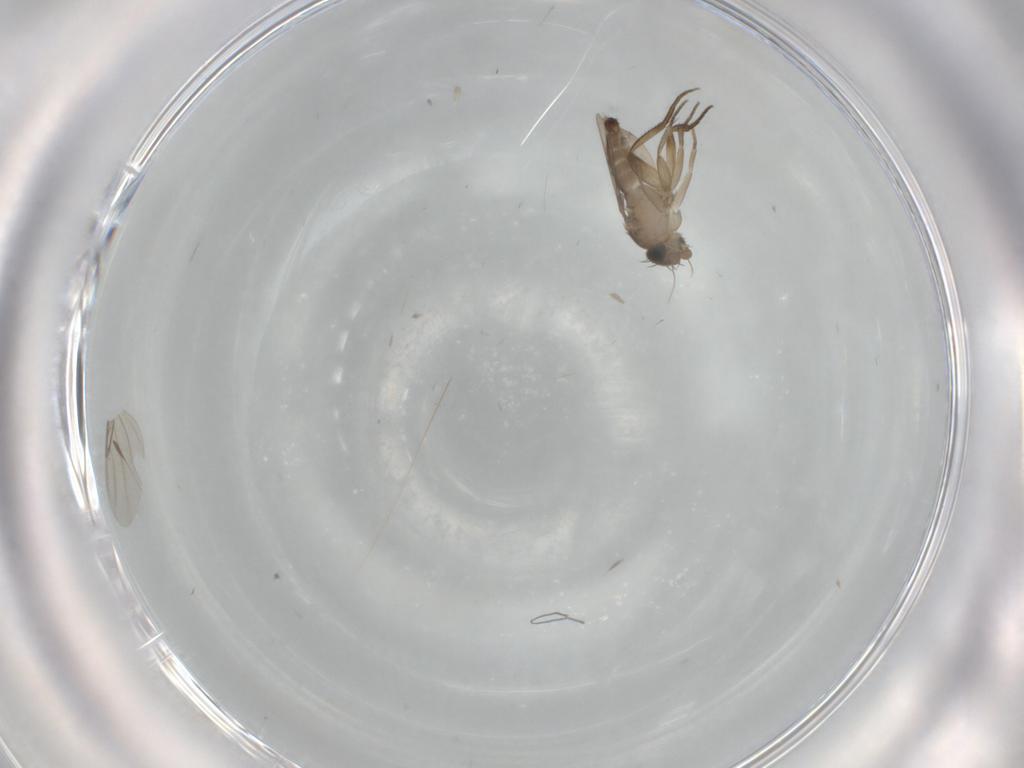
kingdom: Animalia
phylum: Arthropoda
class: Insecta
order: Diptera
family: Phoridae
